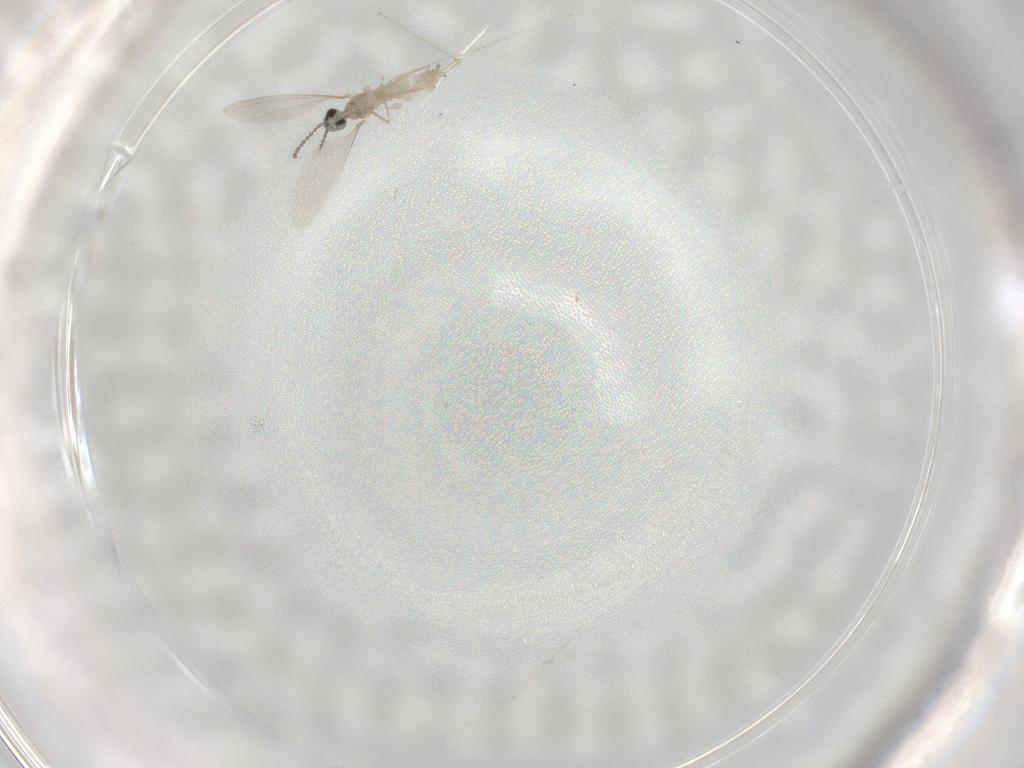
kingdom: Animalia
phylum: Arthropoda
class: Insecta
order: Diptera
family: Cecidomyiidae
